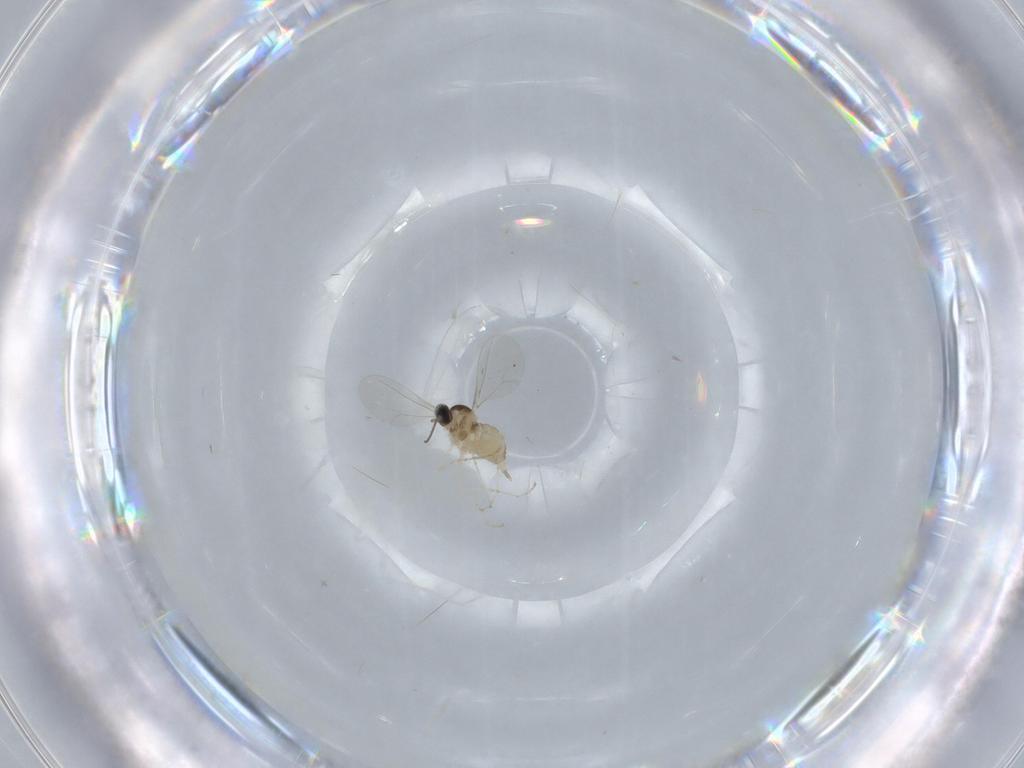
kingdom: Animalia
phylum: Arthropoda
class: Insecta
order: Diptera
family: Cecidomyiidae
